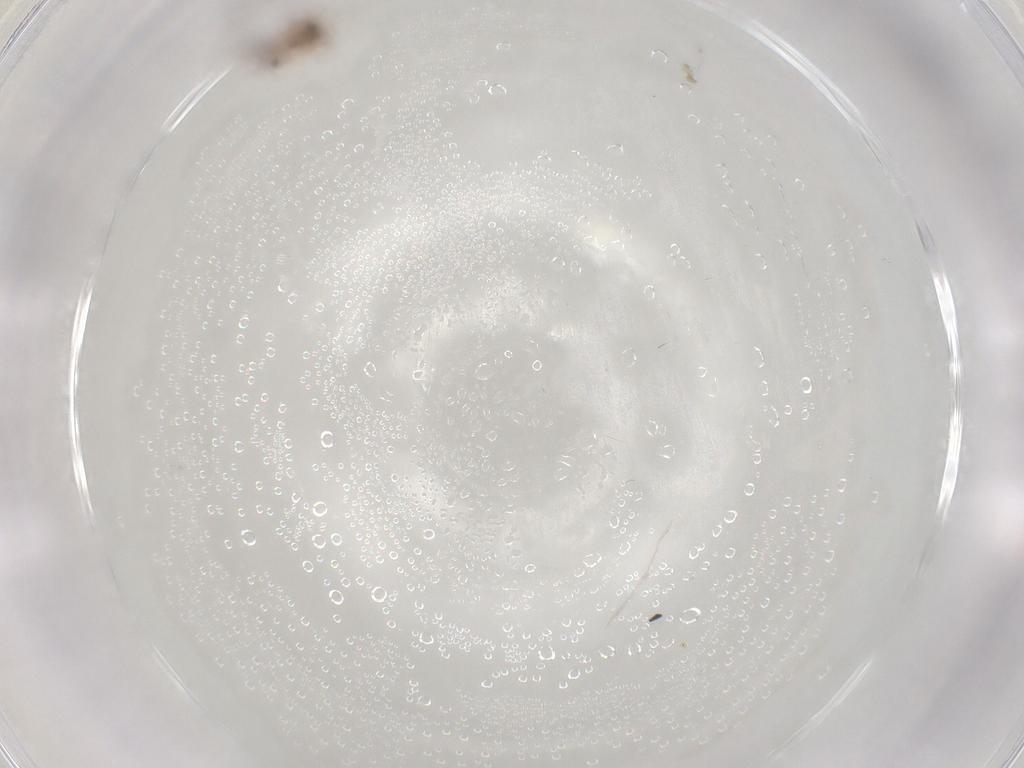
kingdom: Animalia
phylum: Arthropoda
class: Insecta
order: Hymenoptera
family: Scelionidae
